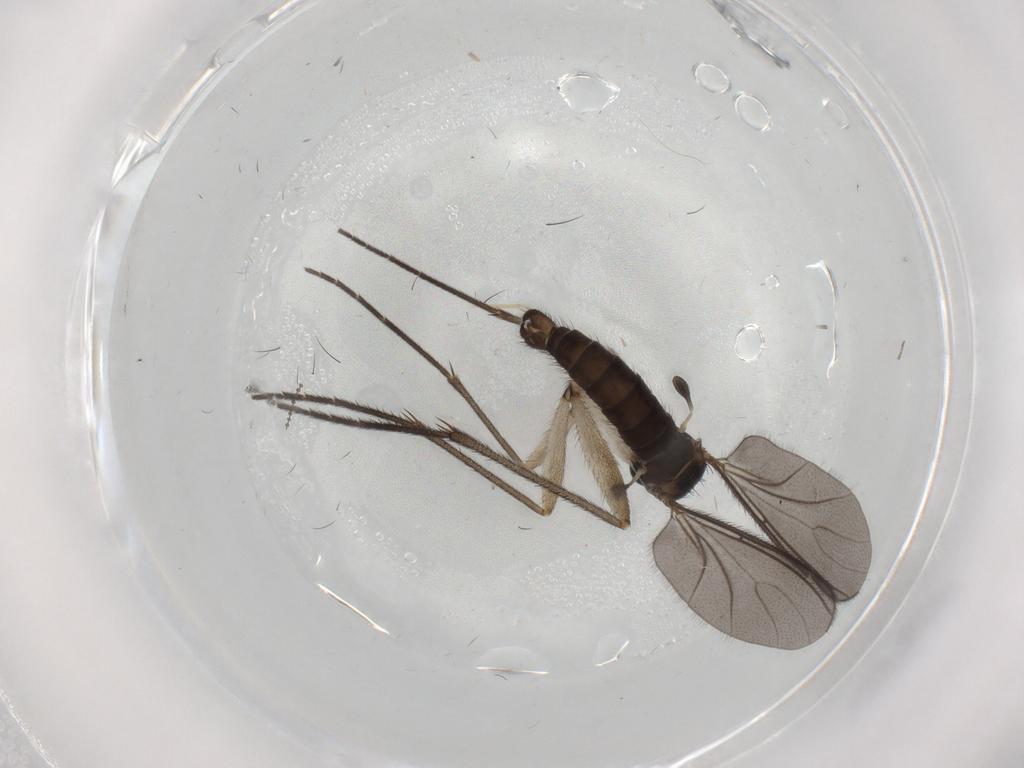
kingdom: Animalia
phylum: Arthropoda
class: Insecta
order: Diptera
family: Sciaridae
